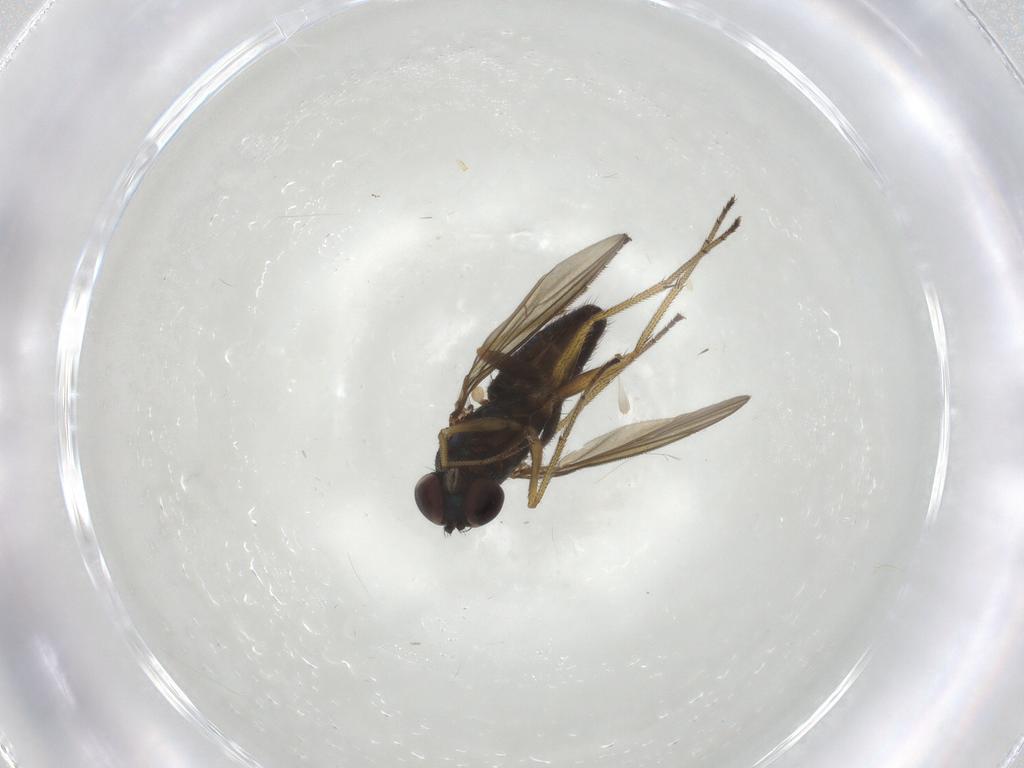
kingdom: Animalia
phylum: Arthropoda
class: Insecta
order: Diptera
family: Dolichopodidae
